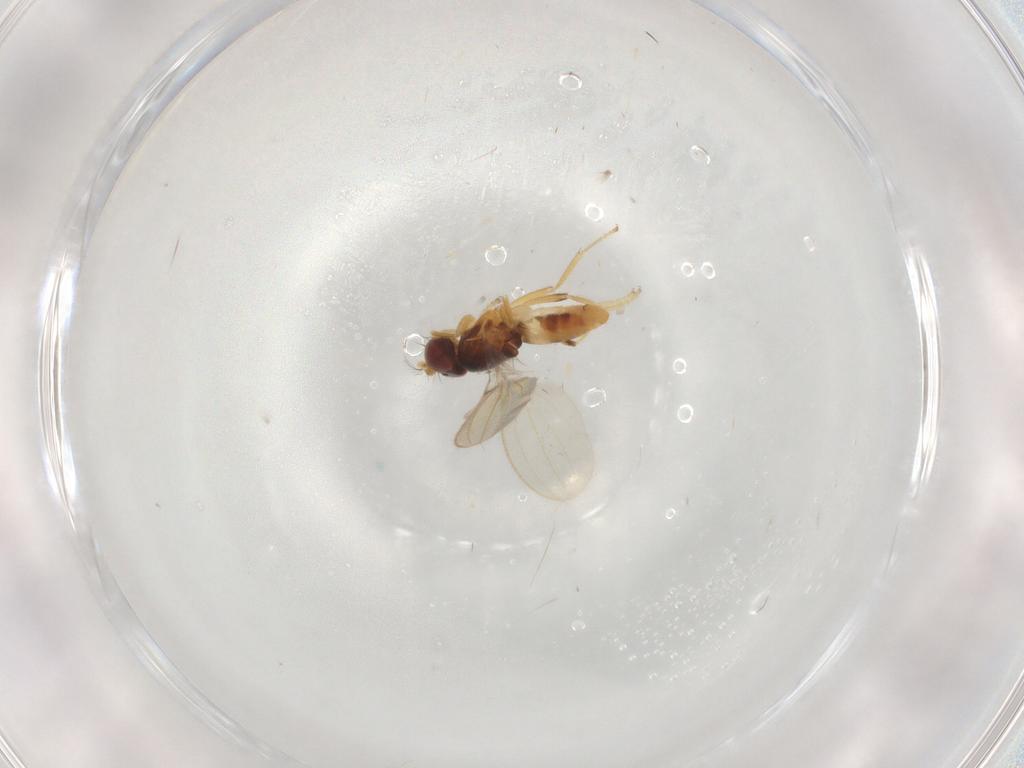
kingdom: Animalia
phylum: Arthropoda
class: Insecta
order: Diptera
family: Periscelididae
